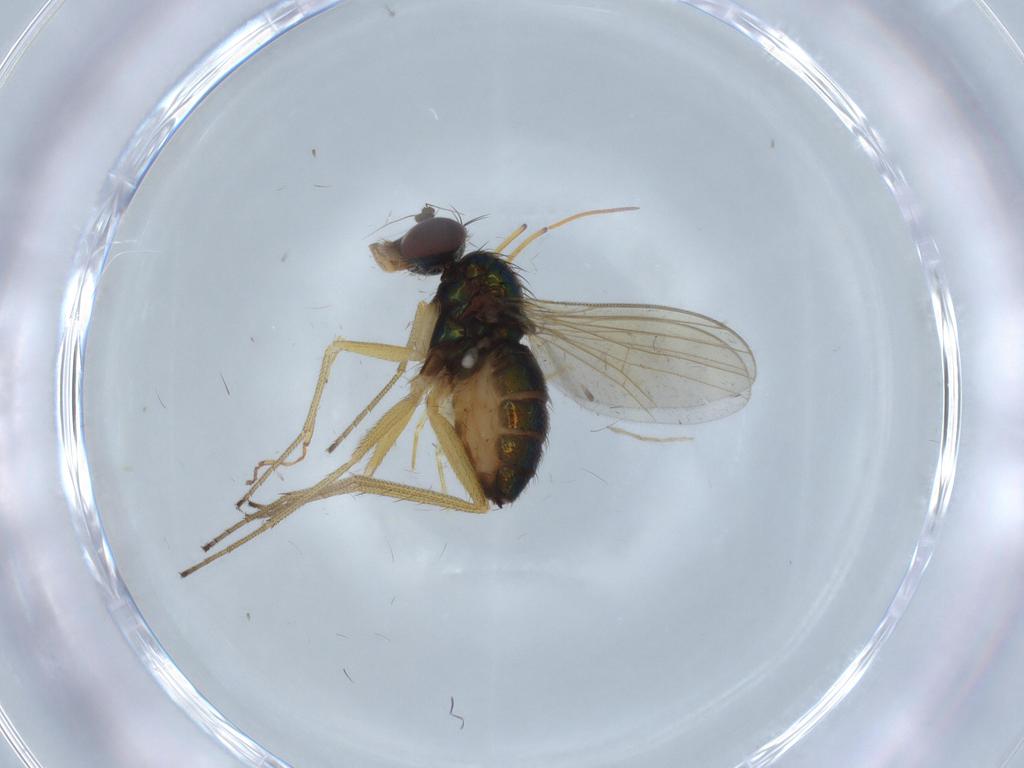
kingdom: Animalia
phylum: Arthropoda
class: Insecta
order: Diptera
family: Dolichopodidae
